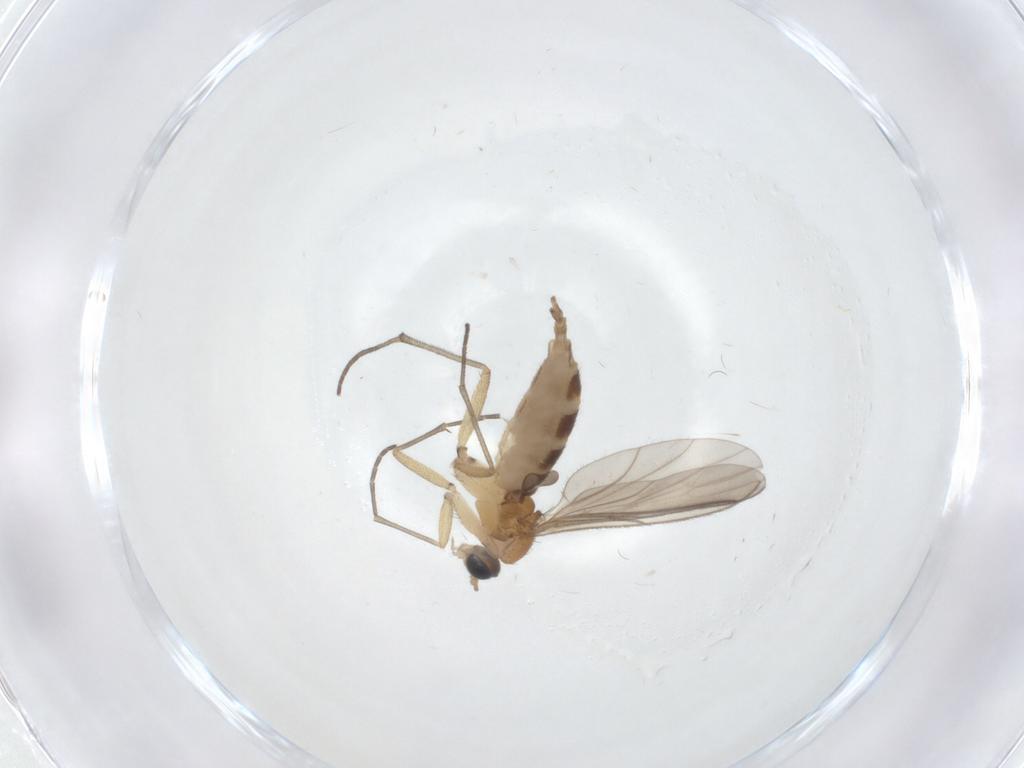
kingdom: Animalia
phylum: Arthropoda
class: Insecta
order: Diptera
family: Sciaridae
